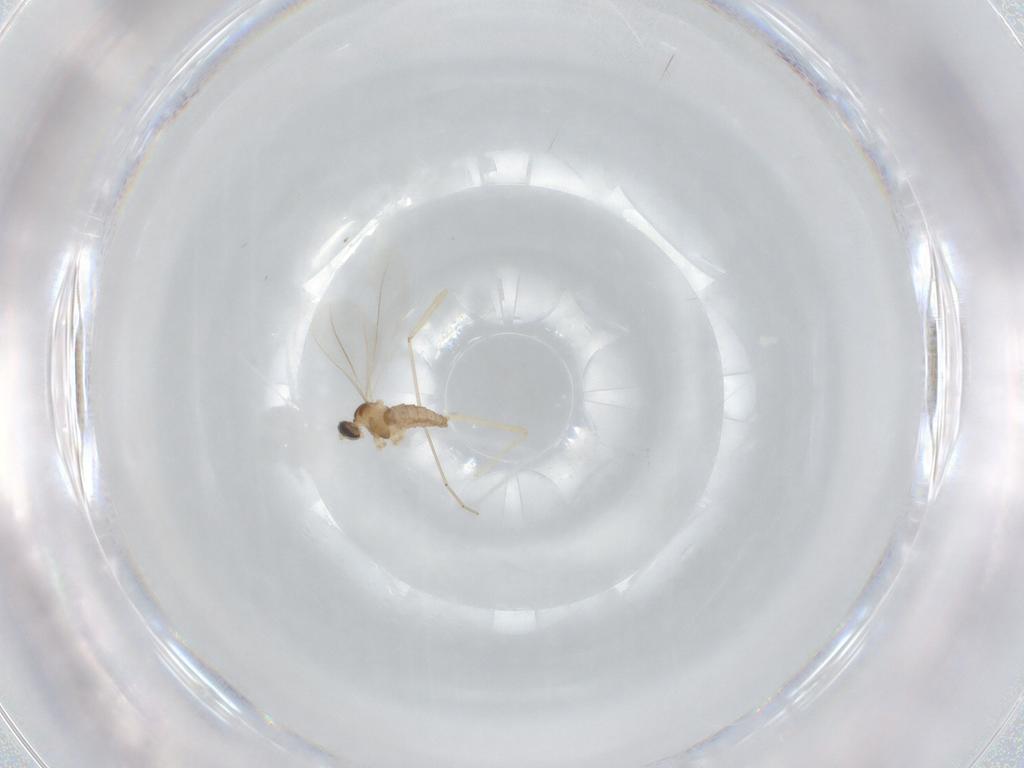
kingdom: Animalia
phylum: Arthropoda
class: Insecta
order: Diptera
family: Cecidomyiidae
